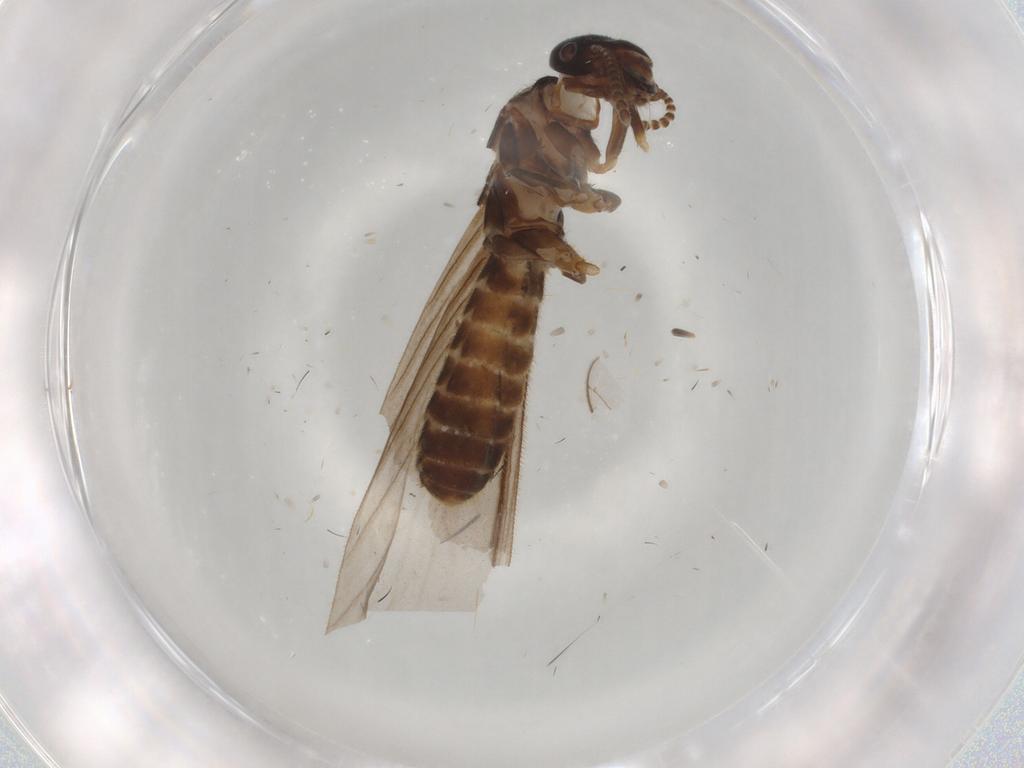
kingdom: Animalia
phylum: Arthropoda
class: Insecta
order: Blattodea
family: Termitidae
